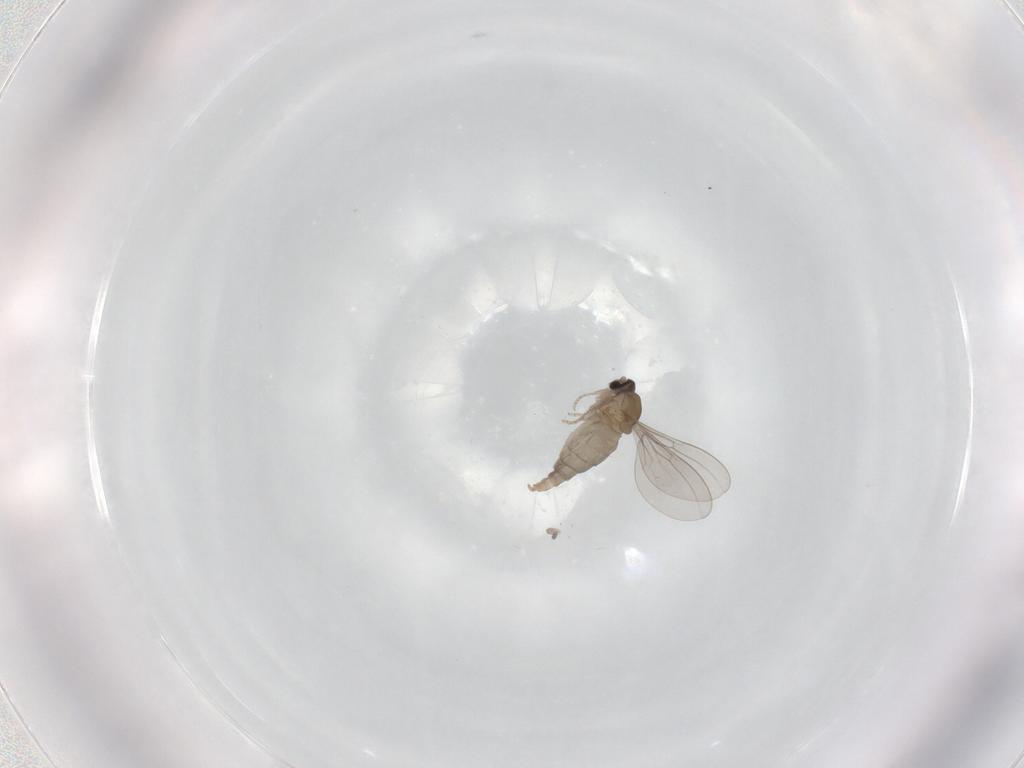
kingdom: Animalia
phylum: Arthropoda
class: Insecta
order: Diptera
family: Cecidomyiidae
